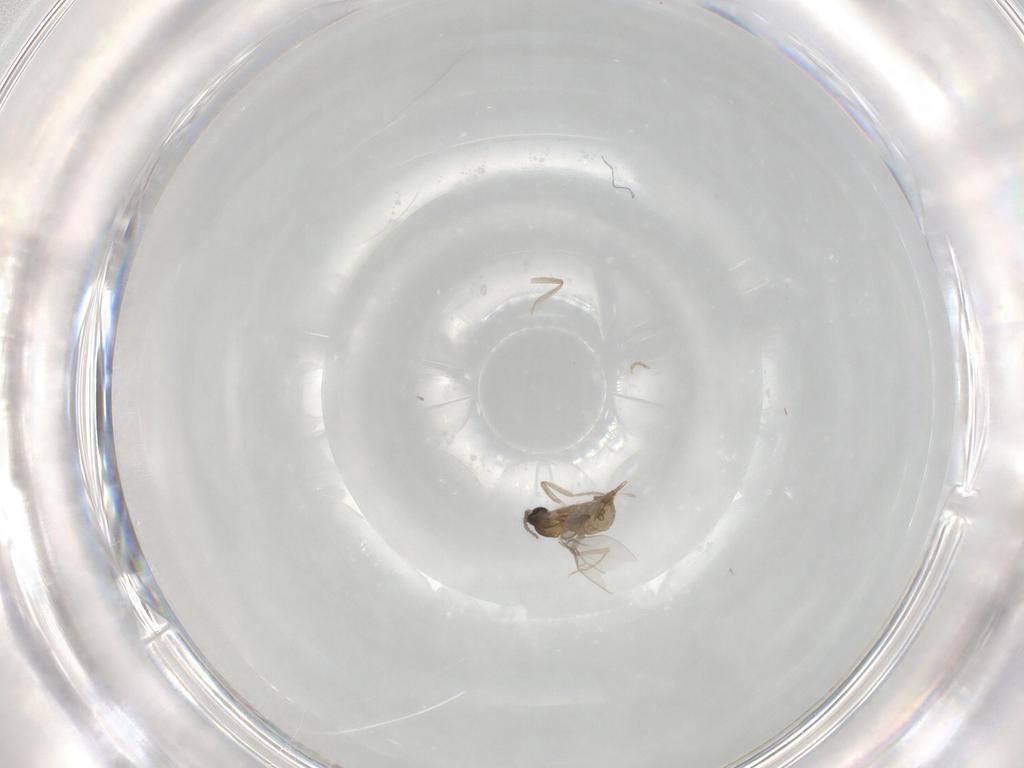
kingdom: Animalia
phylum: Arthropoda
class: Insecta
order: Diptera
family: Cecidomyiidae
